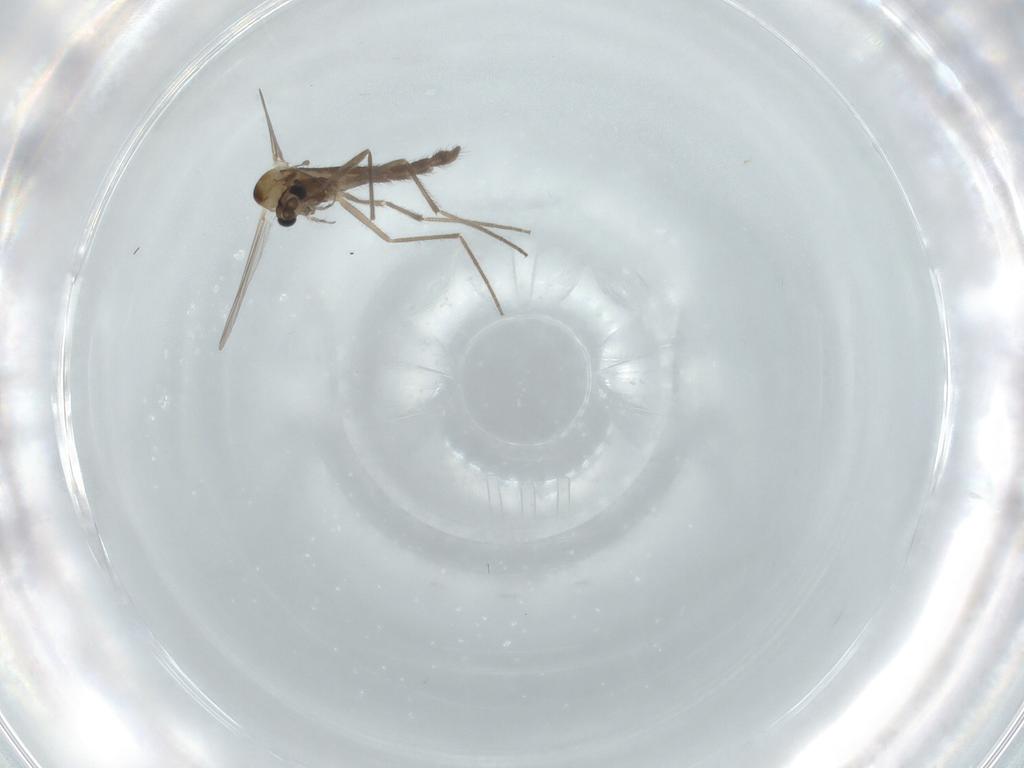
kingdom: Animalia
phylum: Arthropoda
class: Insecta
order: Diptera
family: Chironomidae
